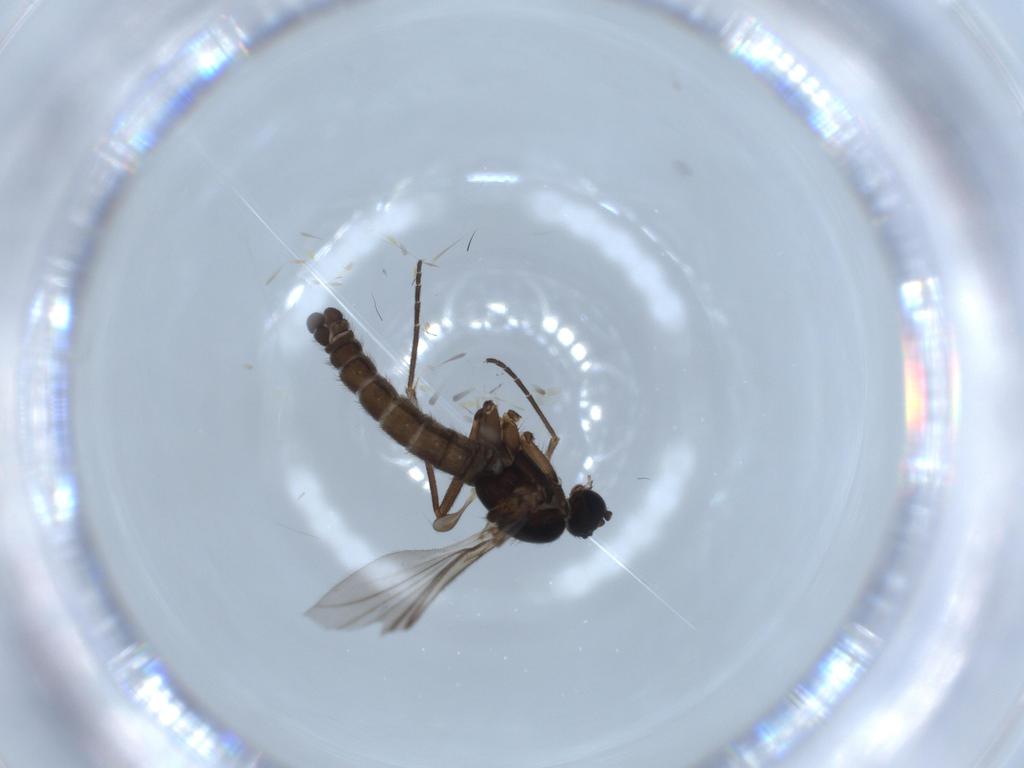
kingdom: Animalia
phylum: Arthropoda
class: Insecta
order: Diptera
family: Sciaridae
